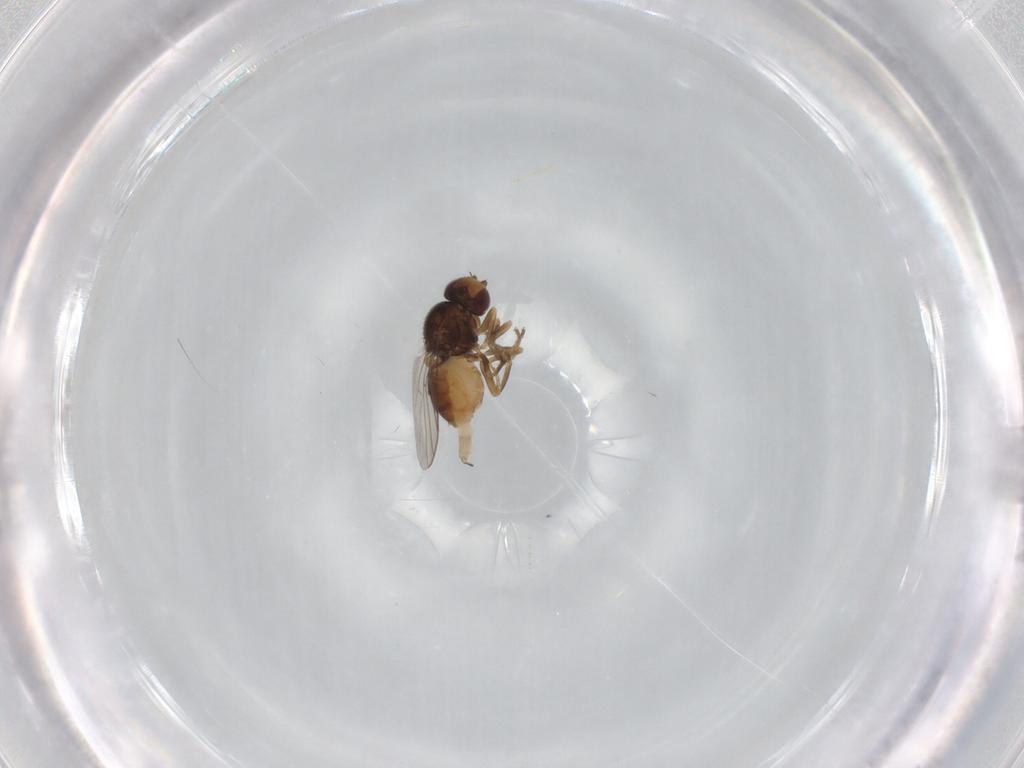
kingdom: Animalia
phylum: Arthropoda
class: Insecta
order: Diptera
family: Chloropidae
